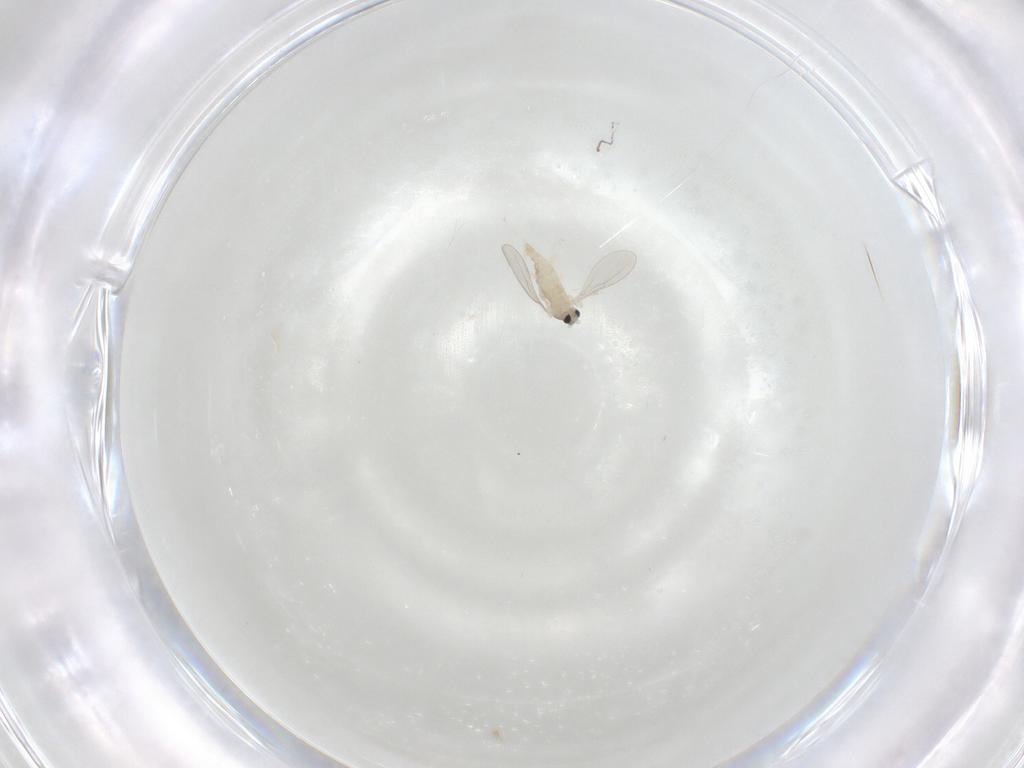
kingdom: Animalia
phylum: Arthropoda
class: Insecta
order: Diptera
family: Cecidomyiidae
